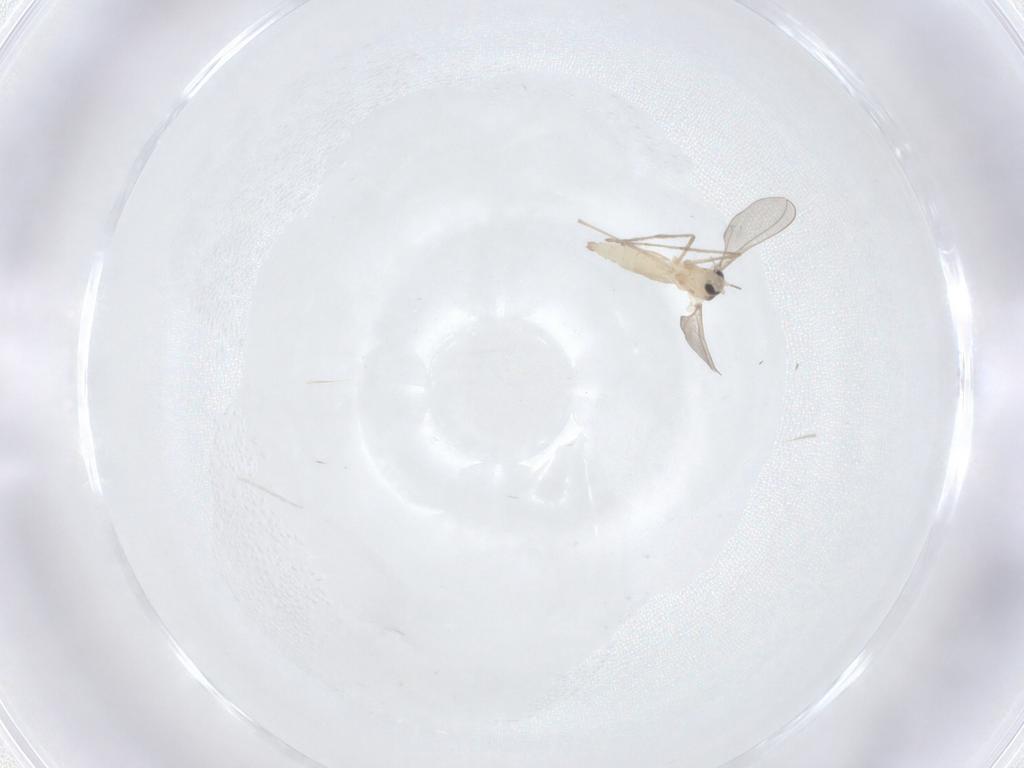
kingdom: Animalia
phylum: Arthropoda
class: Insecta
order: Diptera
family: Cecidomyiidae
